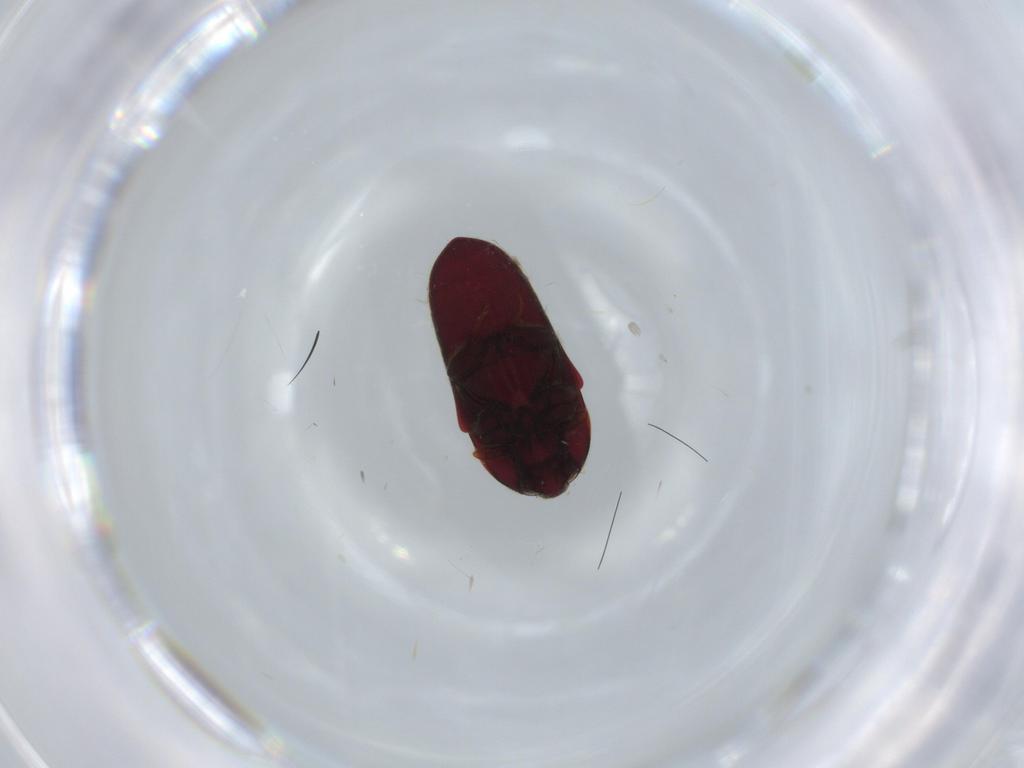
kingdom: Animalia
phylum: Arthropoda
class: Insecta
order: Coleoptera
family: Throscidae
